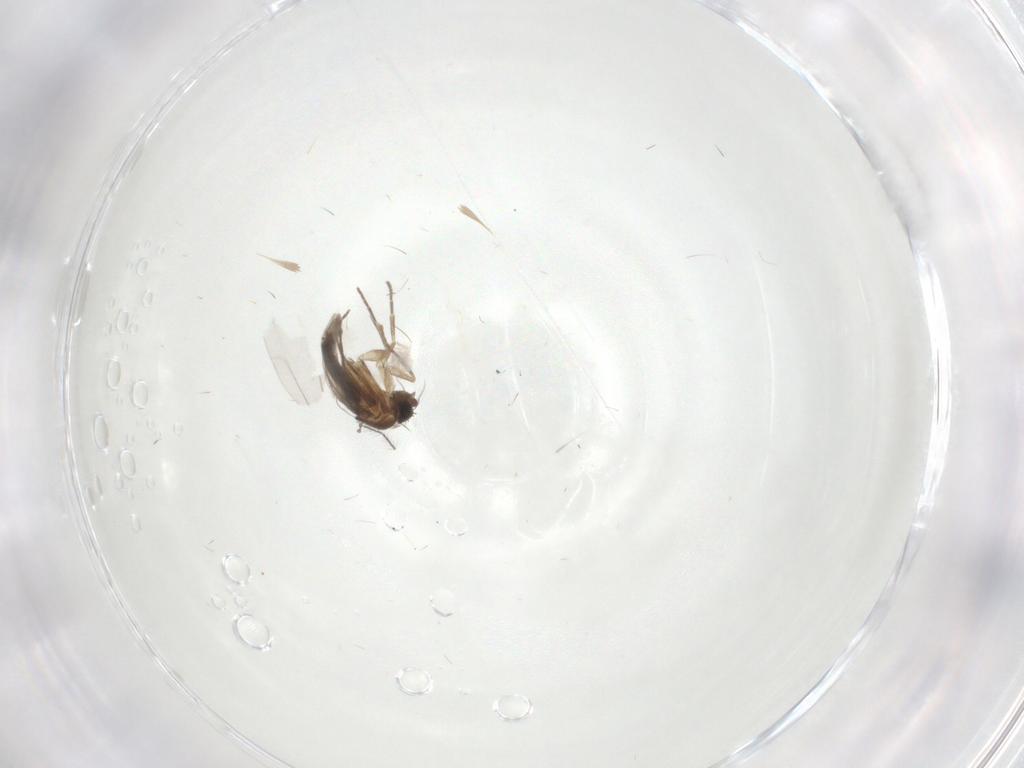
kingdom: Animalia
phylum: Arthropoda
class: Insecta
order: Diptera
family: Limoniidae
